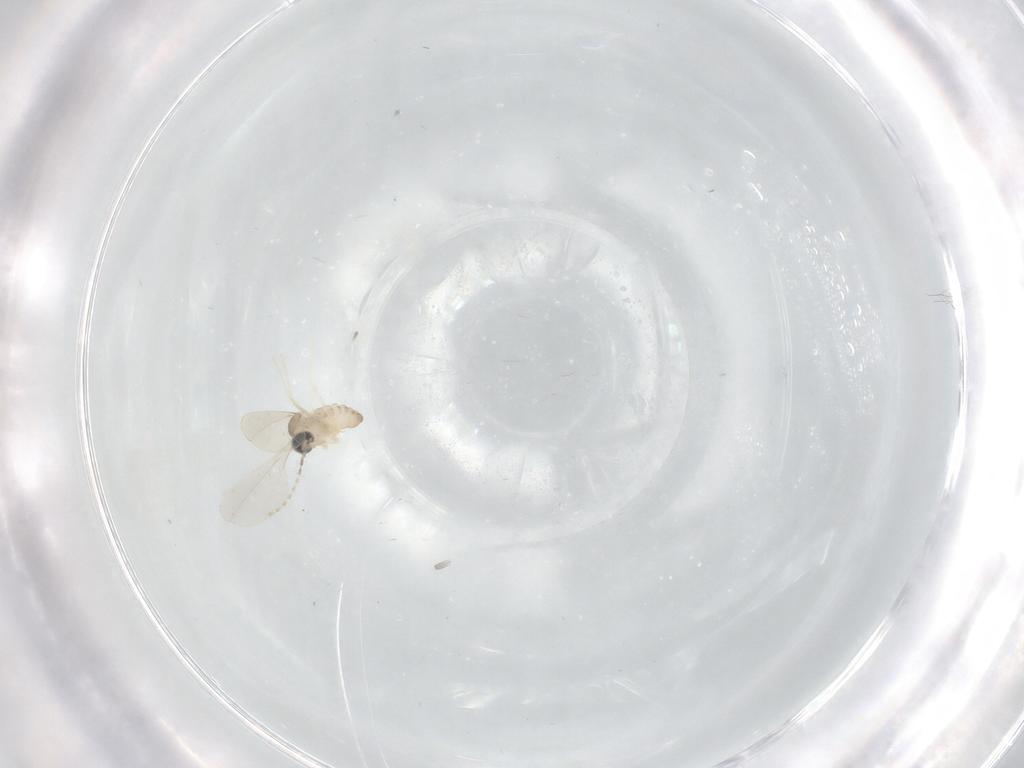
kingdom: Animalia
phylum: Arthropoda
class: Insecta
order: Diptera
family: Cecidomyiidae
